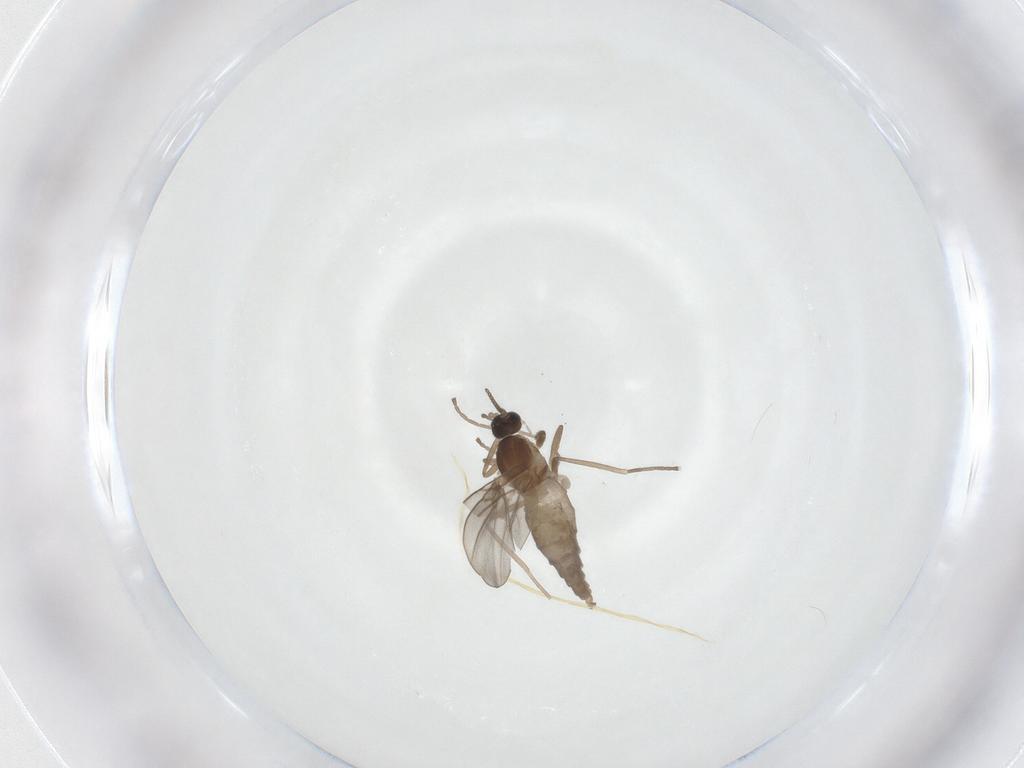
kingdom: Animalia
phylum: Arthropoda
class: Insecta
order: Diptera
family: Cecidomyiidae
